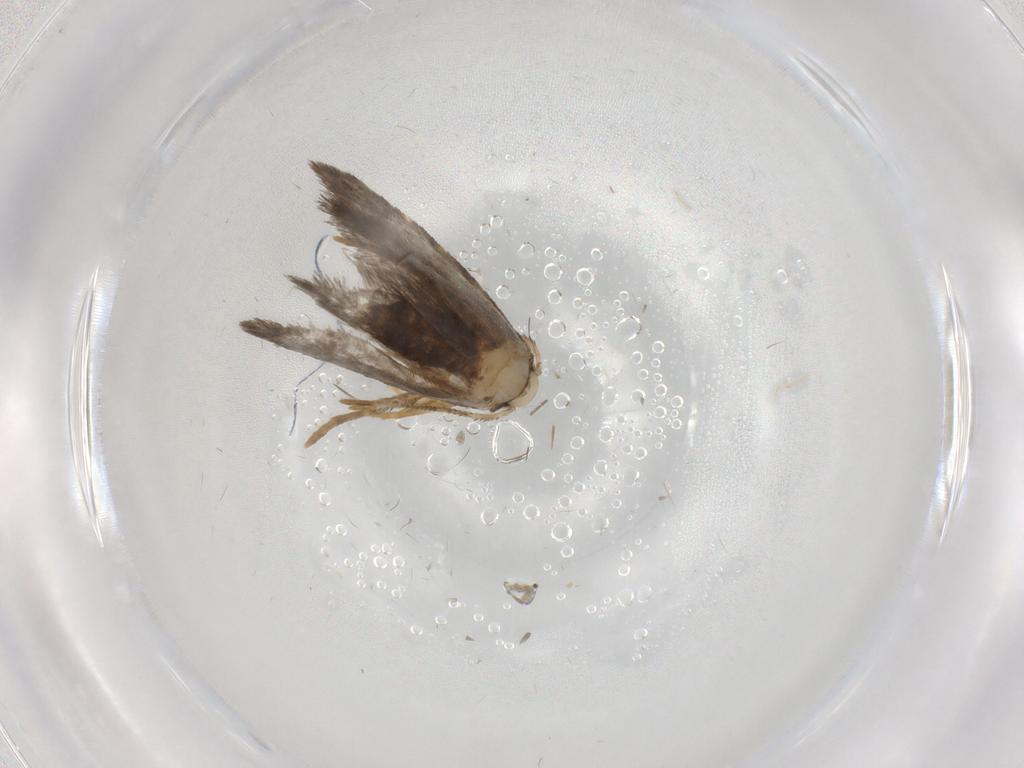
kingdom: Animalia
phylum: Arthropoda
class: Insecta
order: Lepidoptera
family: Psychidae
